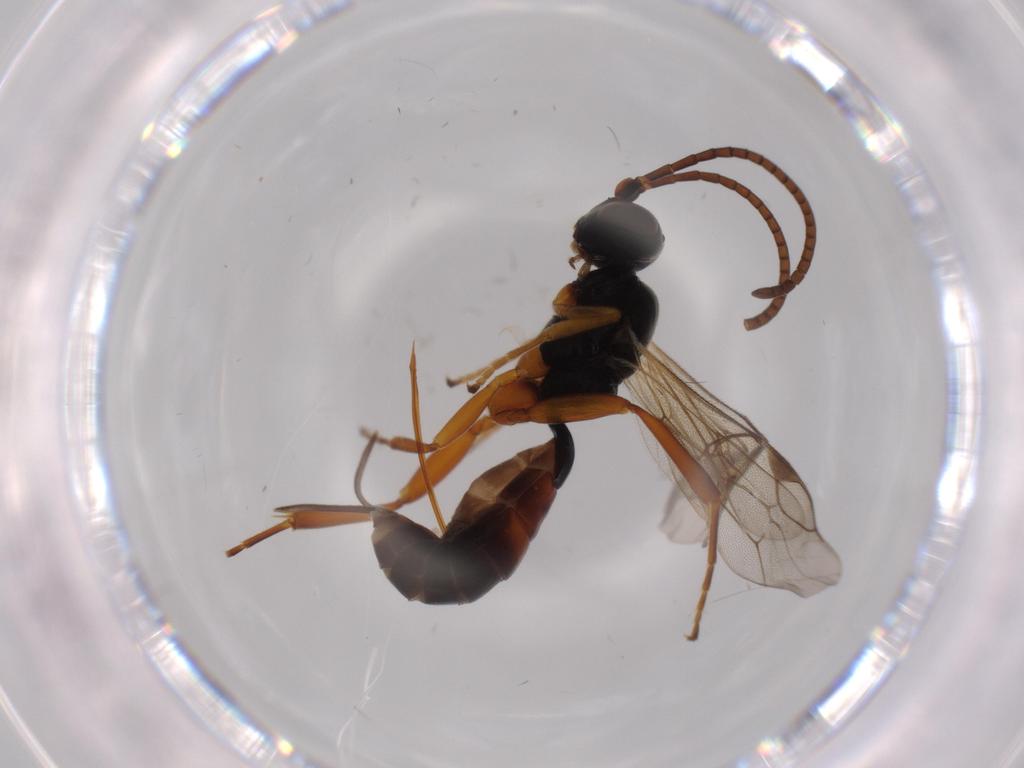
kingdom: Animalia
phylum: Arthropoda
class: Insecta
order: Hymenoptera
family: Ichneumonidae
